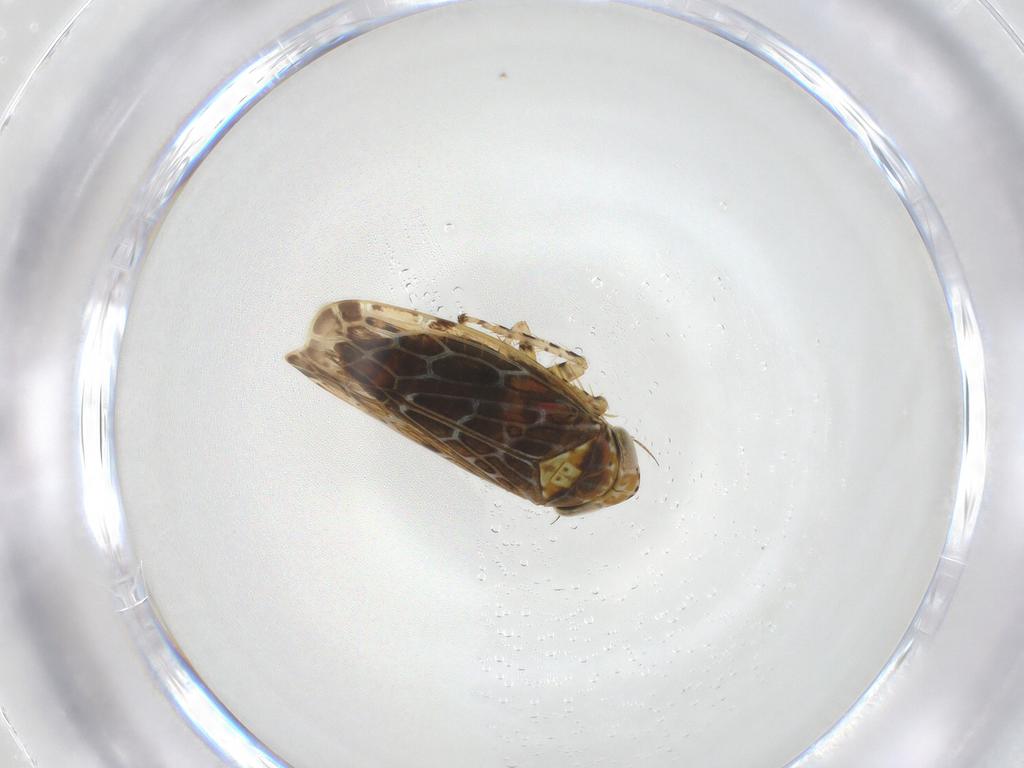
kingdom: Animalia
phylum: Arthropoda
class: Insecta
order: Hemiptera
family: Cicadellidae
